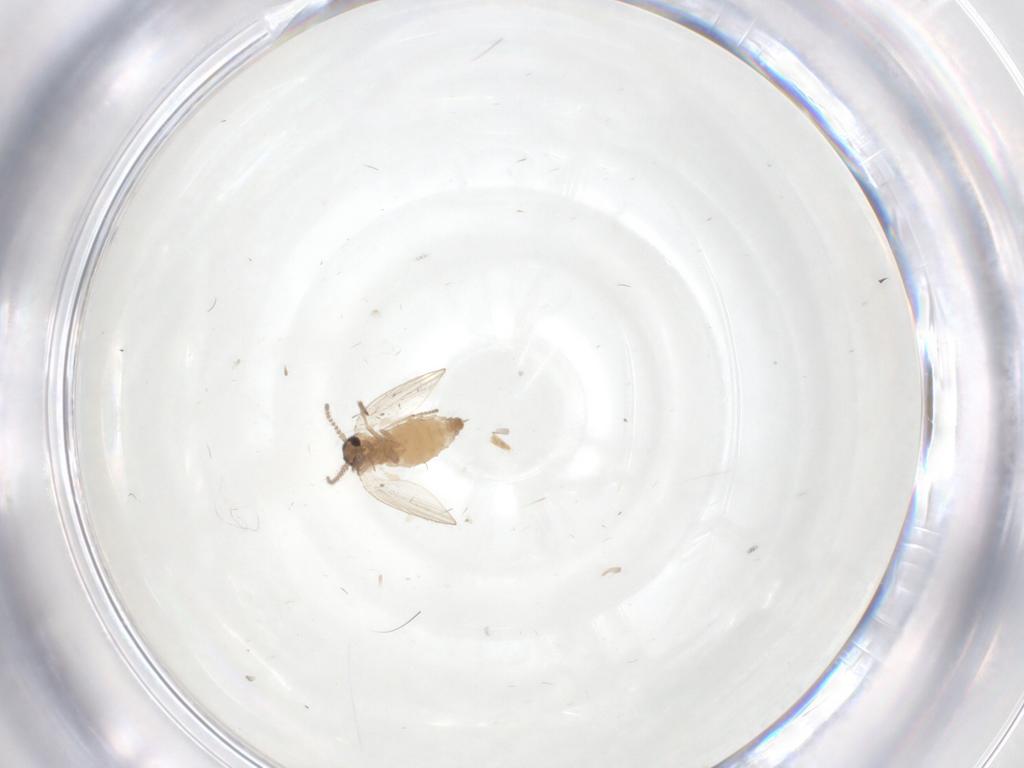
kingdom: Animalia
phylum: Arthropoda
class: Insecta
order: Diptera
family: Psychodidae
